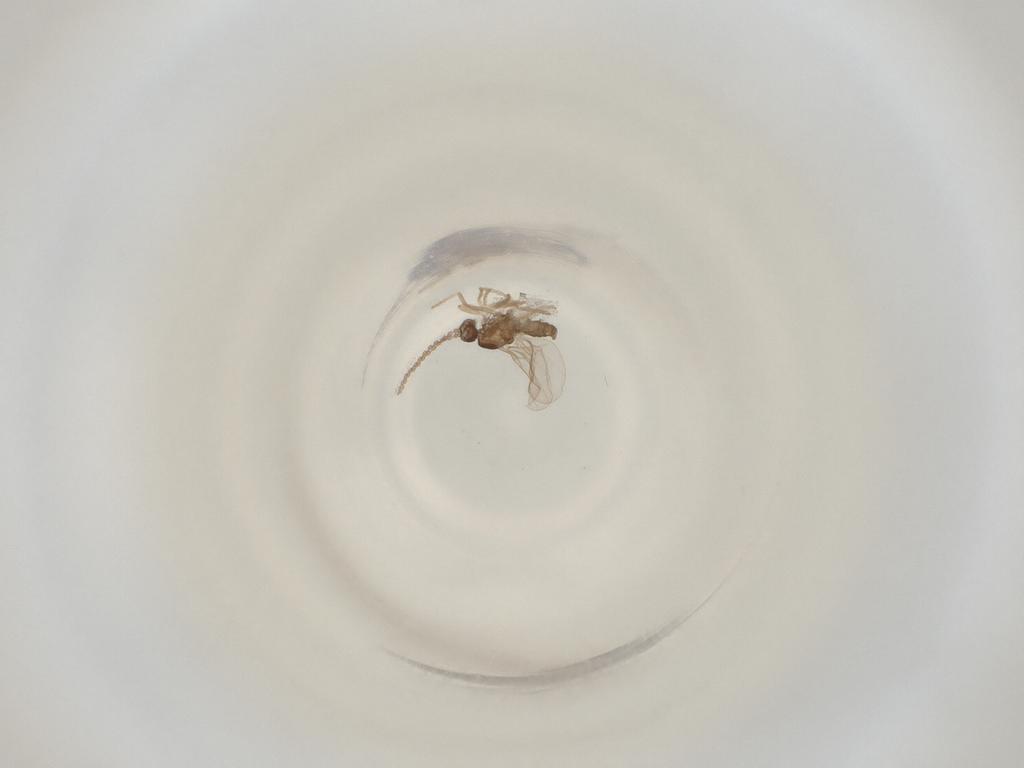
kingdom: Animalia
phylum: Arthropoda
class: Insecta
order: Diptera
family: Cecidomyiidae
